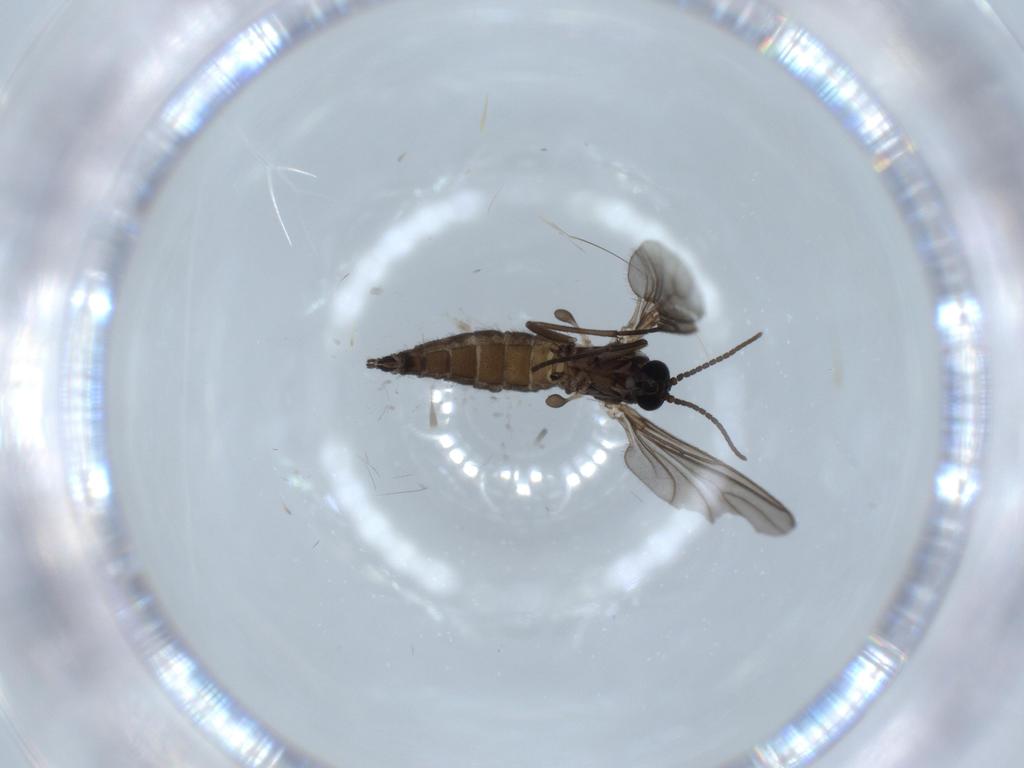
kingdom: Animalia
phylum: Arthropoda
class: Insecta
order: Diptera
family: Sciaridae
